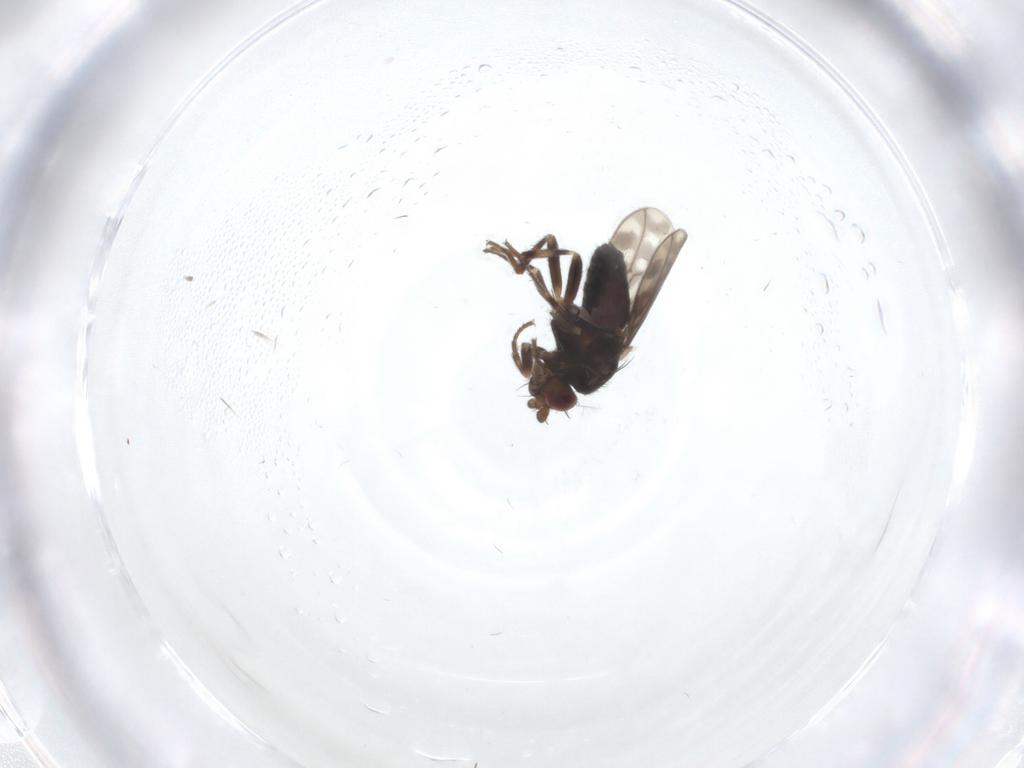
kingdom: Animalia
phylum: Arthropoda
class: Insecta
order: Diptera
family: Sphaeroceridae
